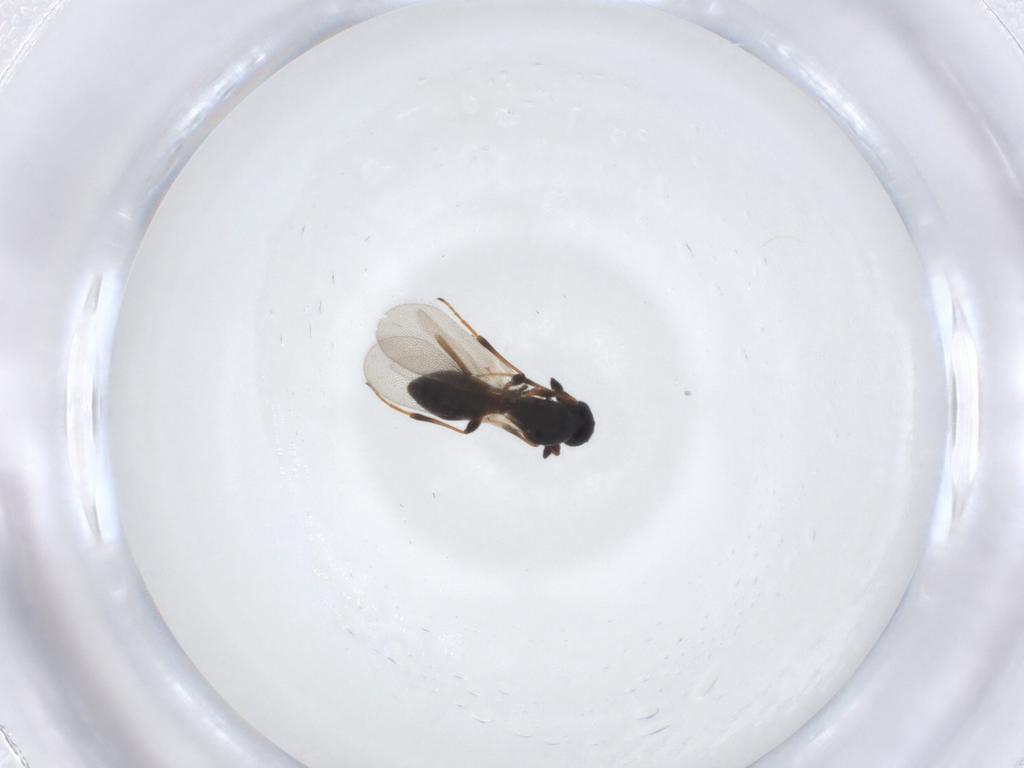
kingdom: Animalia
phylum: Arthropoda
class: Insecta
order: Hymenoptera
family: Platygastridae
